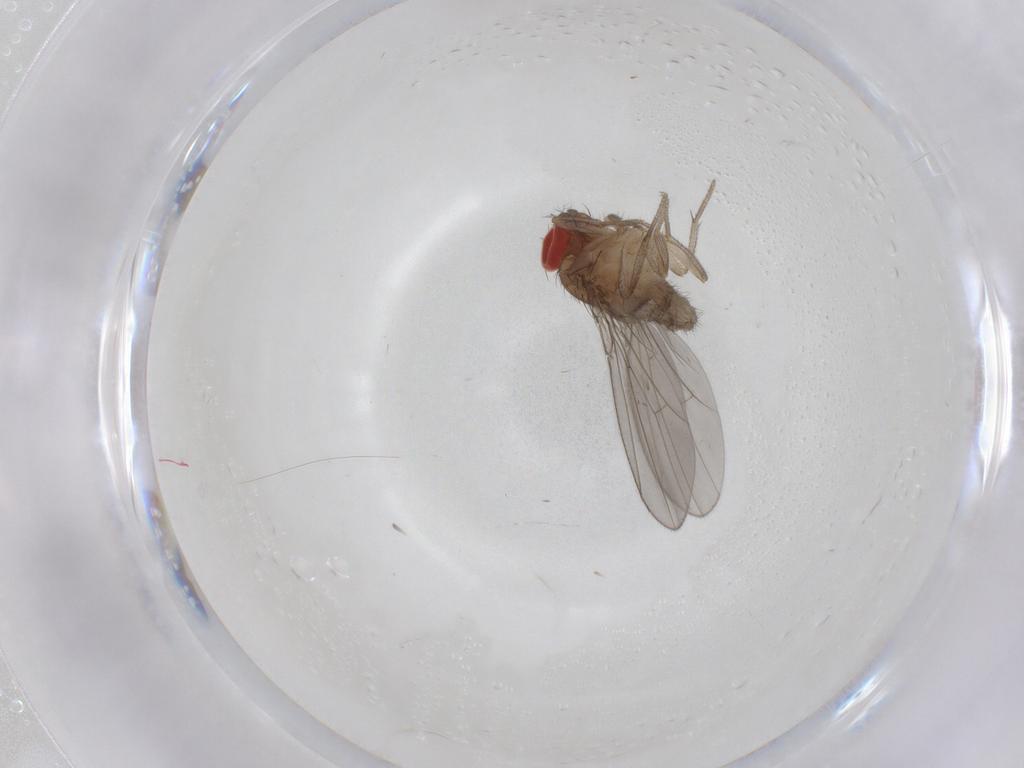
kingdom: Animalia
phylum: Arthropoda
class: Insecta
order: Diptera
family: Drosophilidae
